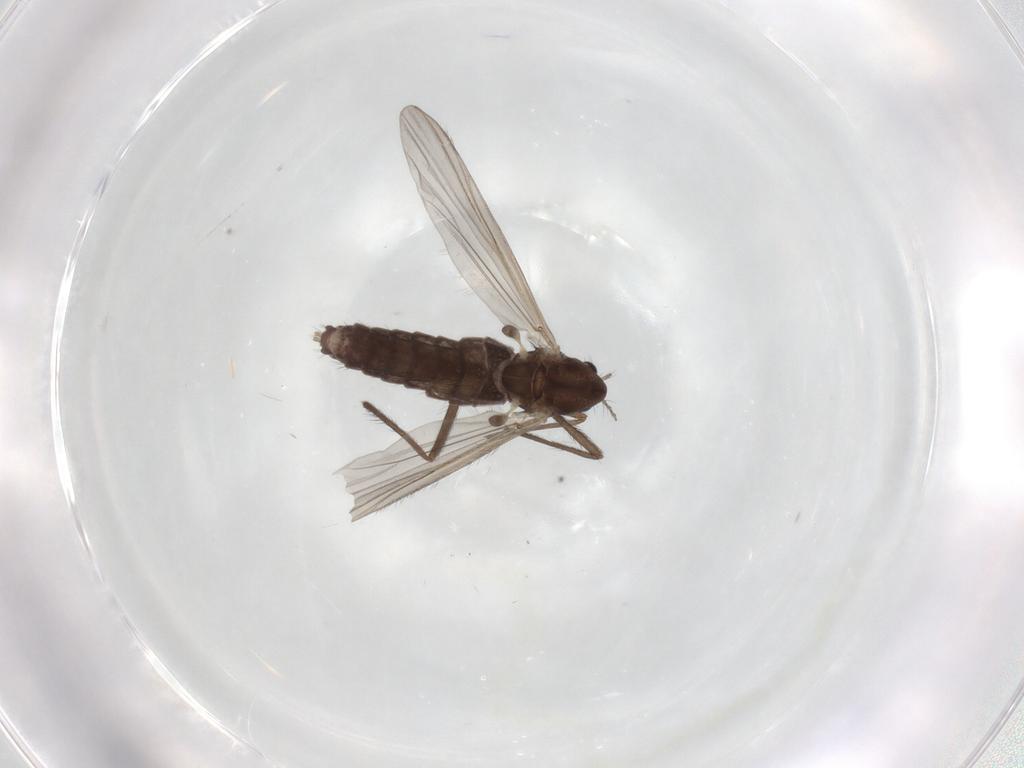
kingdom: Animalia
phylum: Arthropoda
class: Insecta
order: Diptera
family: Chironomidae
